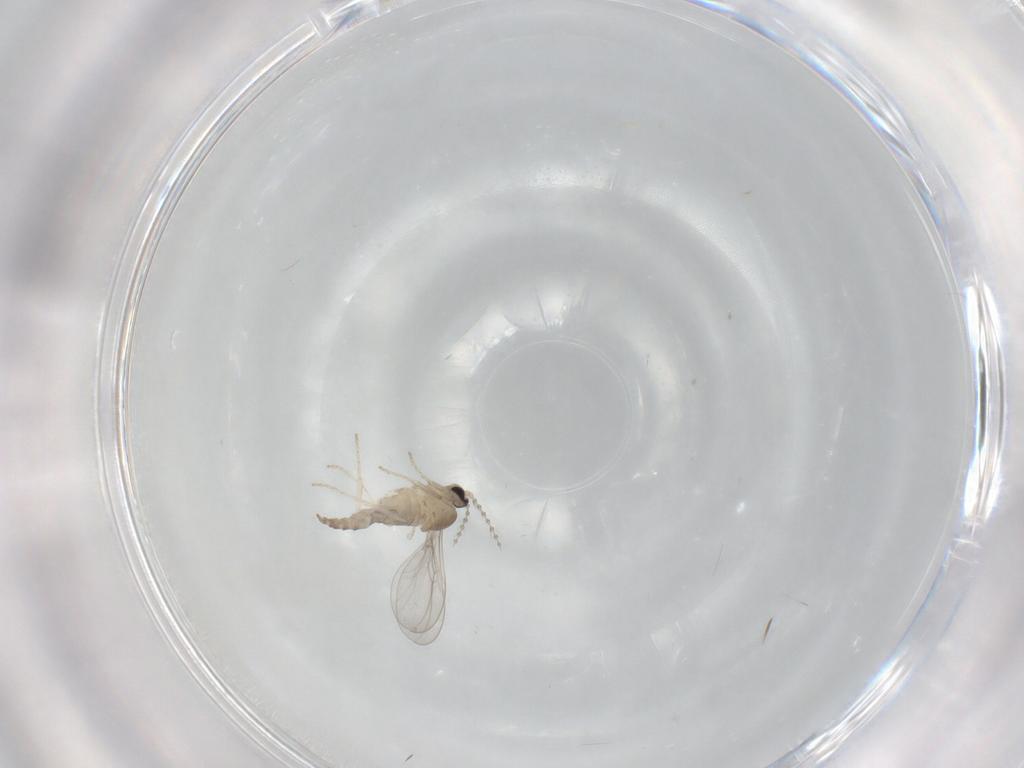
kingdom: Animalia
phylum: Arthropoda
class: Insecta
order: Diptera
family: Cecidomyiidae
